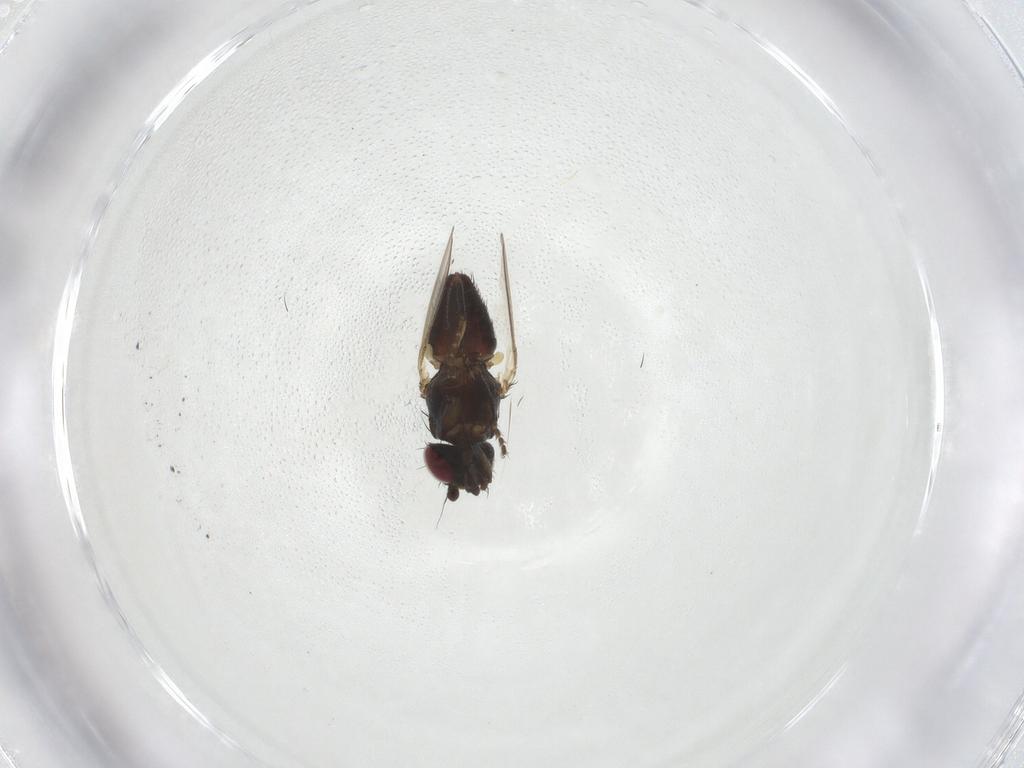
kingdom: Animalia
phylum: Arthropoda
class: Insecta
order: Diptera
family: Milichiidae
